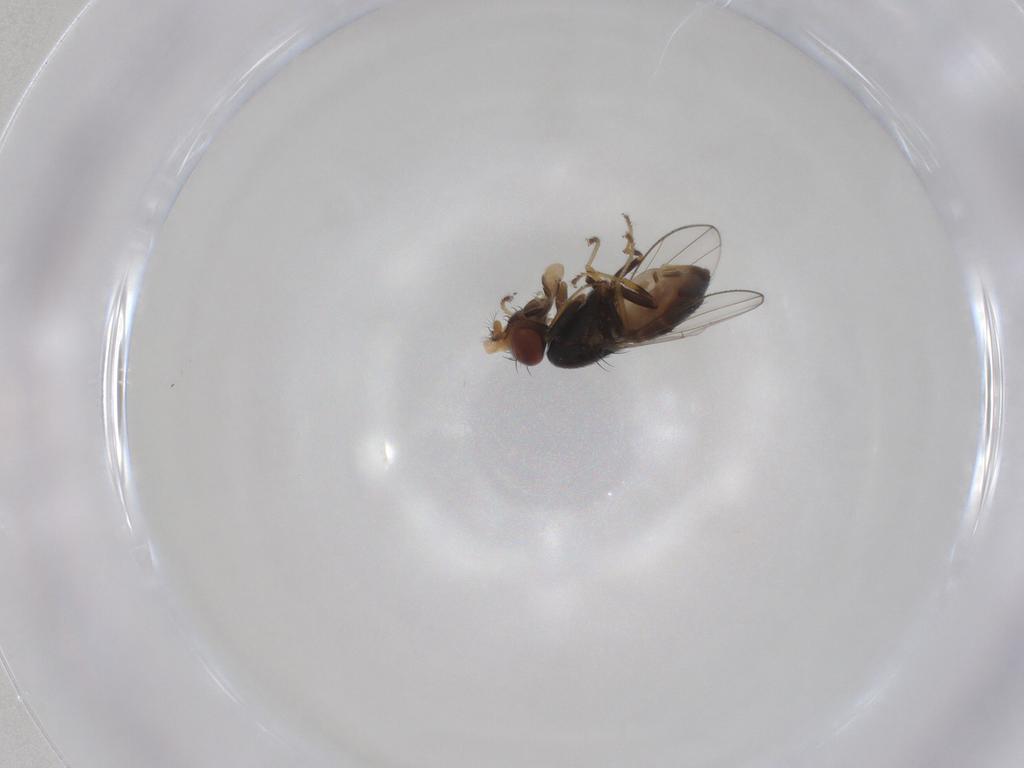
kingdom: Animalia
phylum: Arthropoda
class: Insecta
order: Diptera
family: Ephydridae
